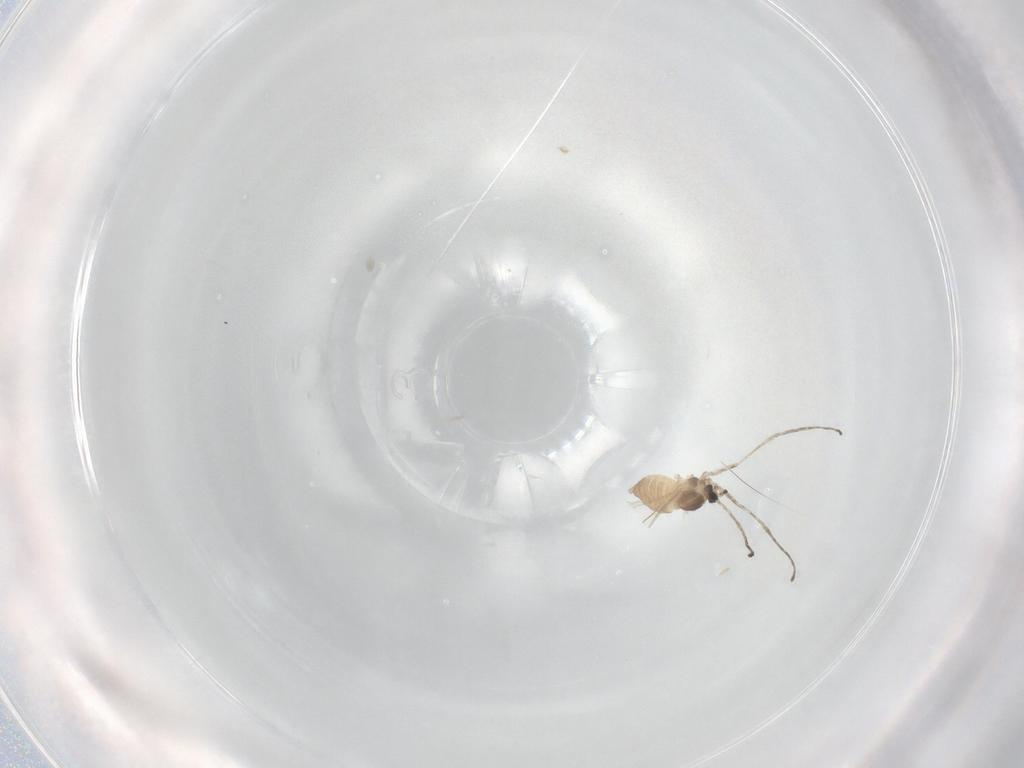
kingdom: Animalia
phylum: Arthropoda
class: Insecta
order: Diptera
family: Cecidomyiidae
